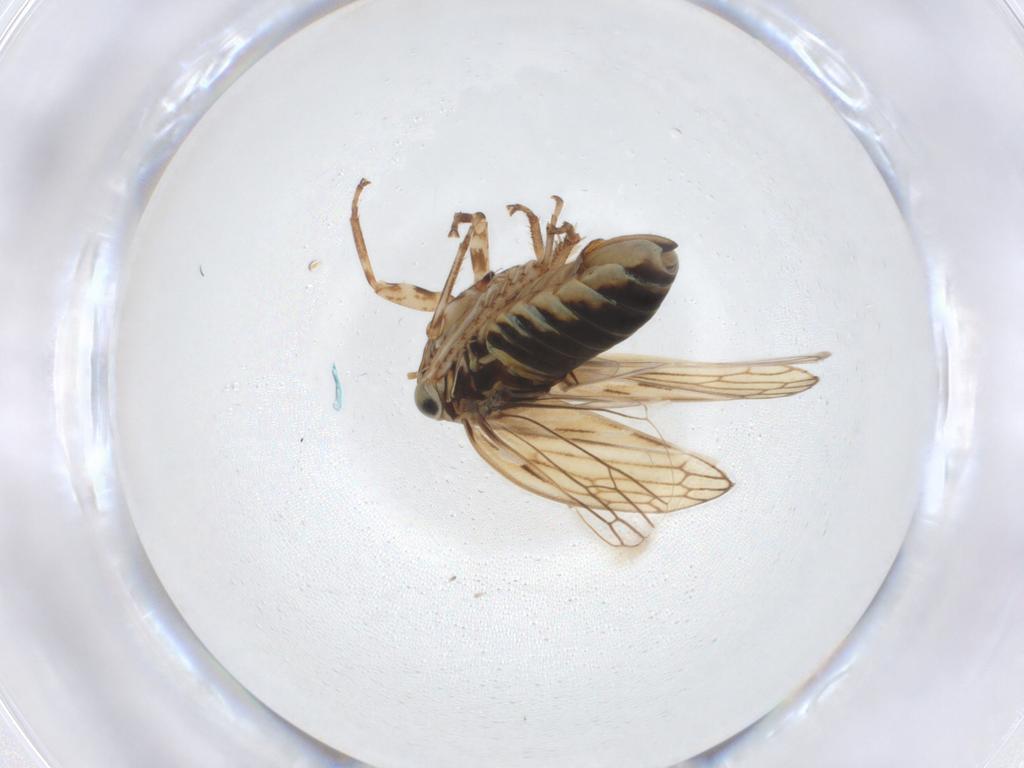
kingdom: Animalia
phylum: Arthropoda
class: Insecta
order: Hemiptera
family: Cicadellidae
